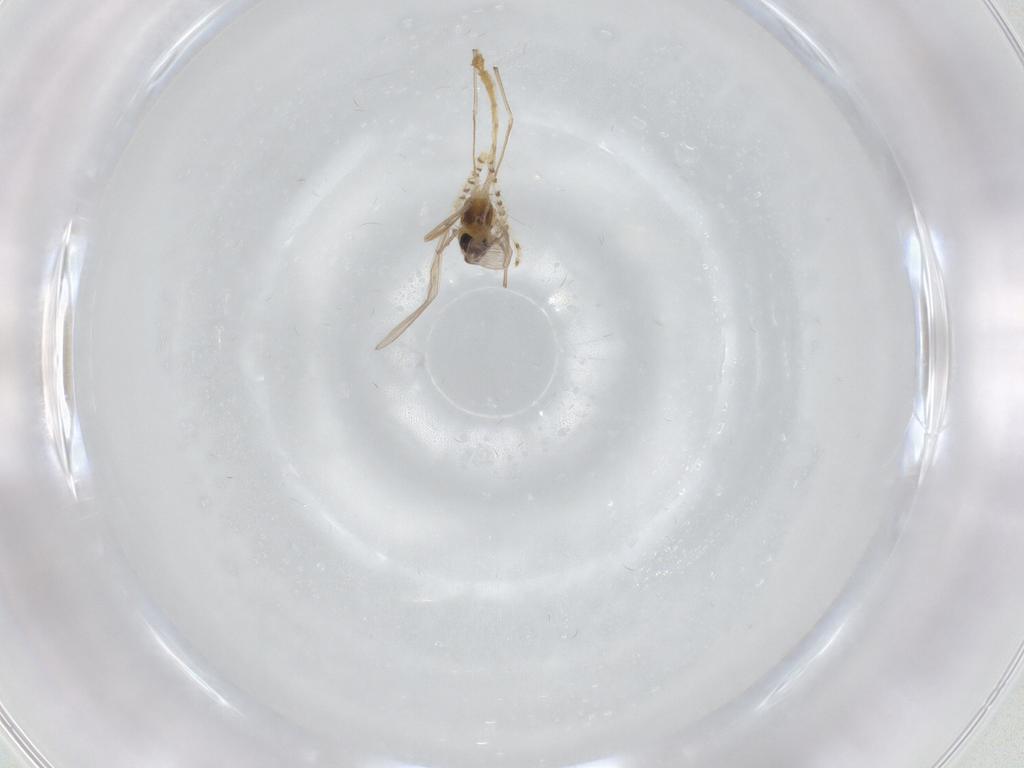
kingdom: Animalia
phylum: Arthropoda
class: Insecta
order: Diptera
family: Chironomidae
